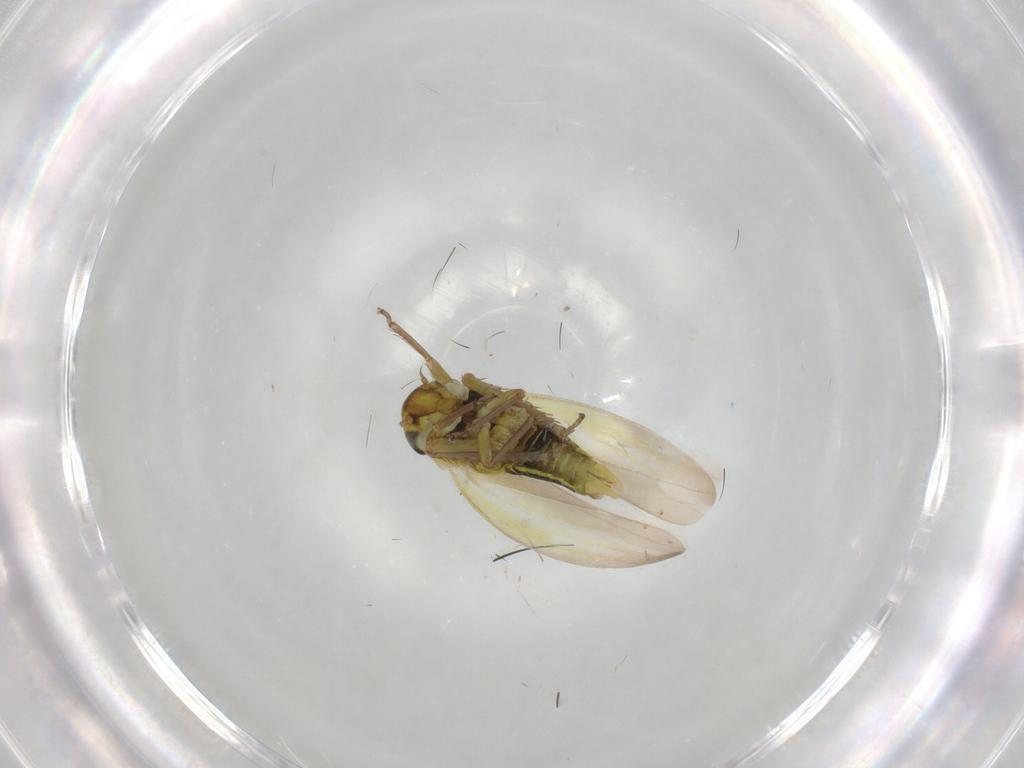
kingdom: Animalia
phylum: Arthropoda
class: Insecta
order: Hemiptera
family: Cicadellidae
